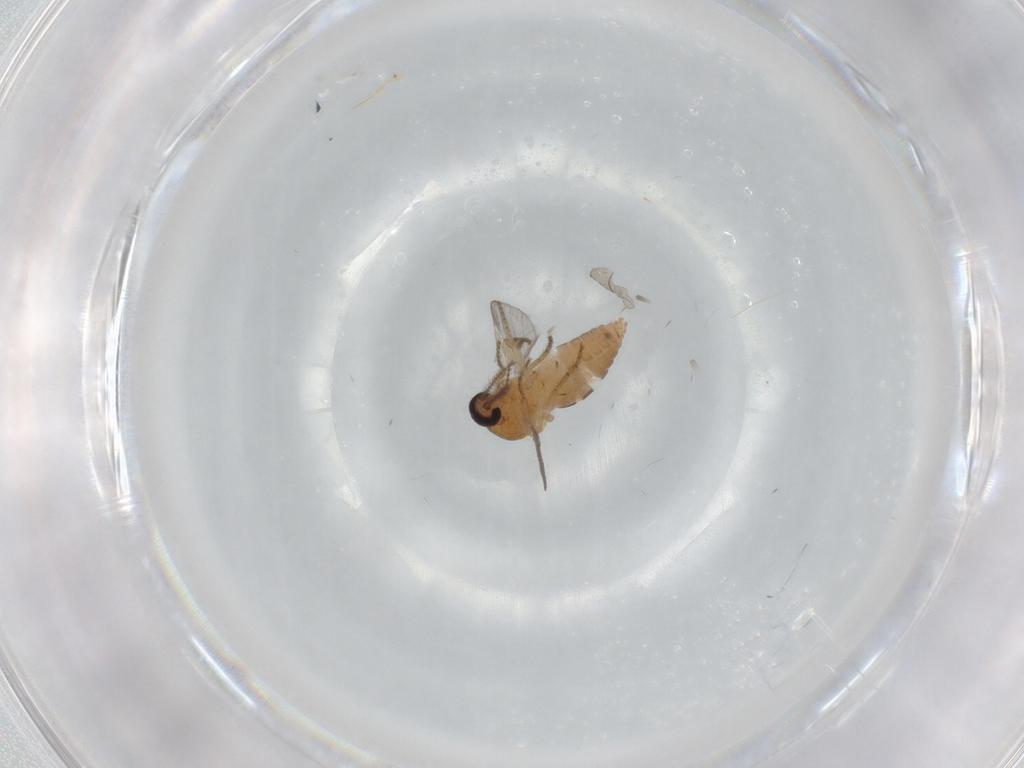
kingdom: Animalia
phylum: Arthropoda
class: Insecta
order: Diptera
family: Ceratopogonidae
